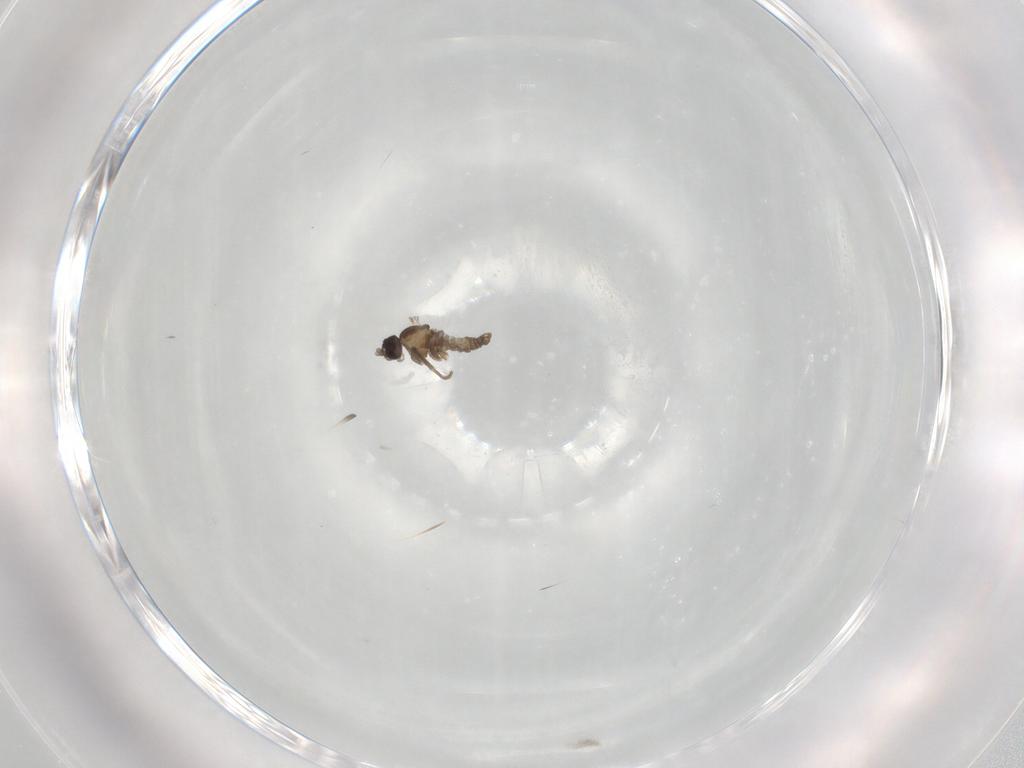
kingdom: Animalia
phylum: Arthropoda
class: Insecta
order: Diptera
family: Cecidomyiidae
